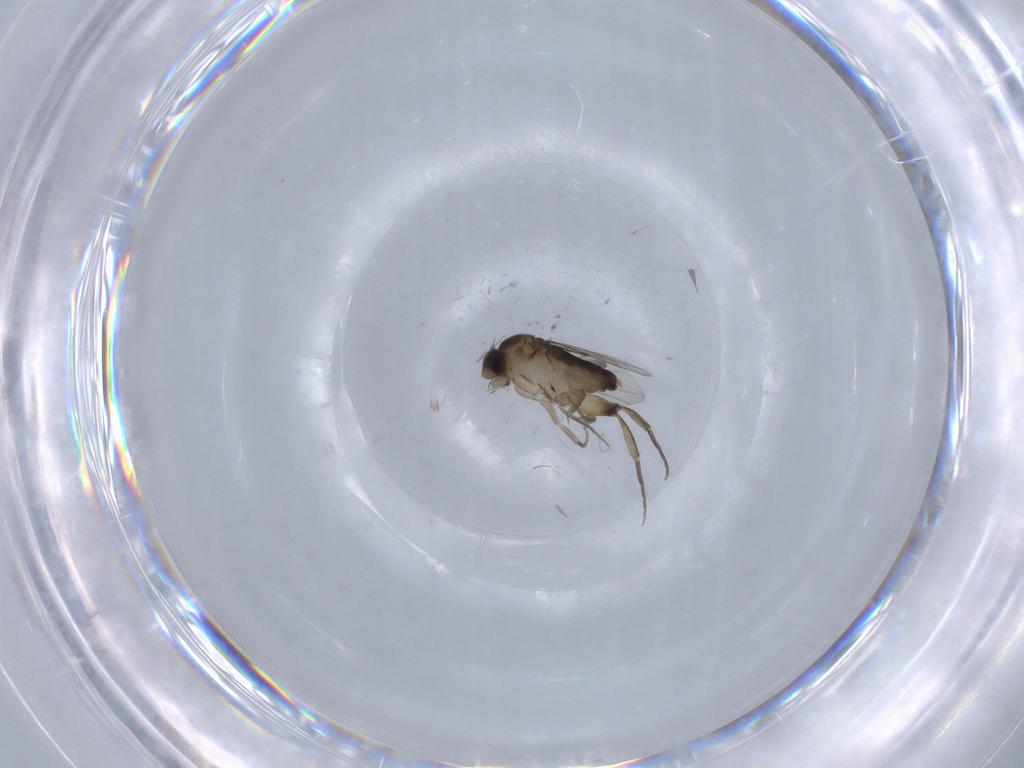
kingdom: Animalia
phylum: Arthropoda
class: Insecta
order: Diptera
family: Phoridae
